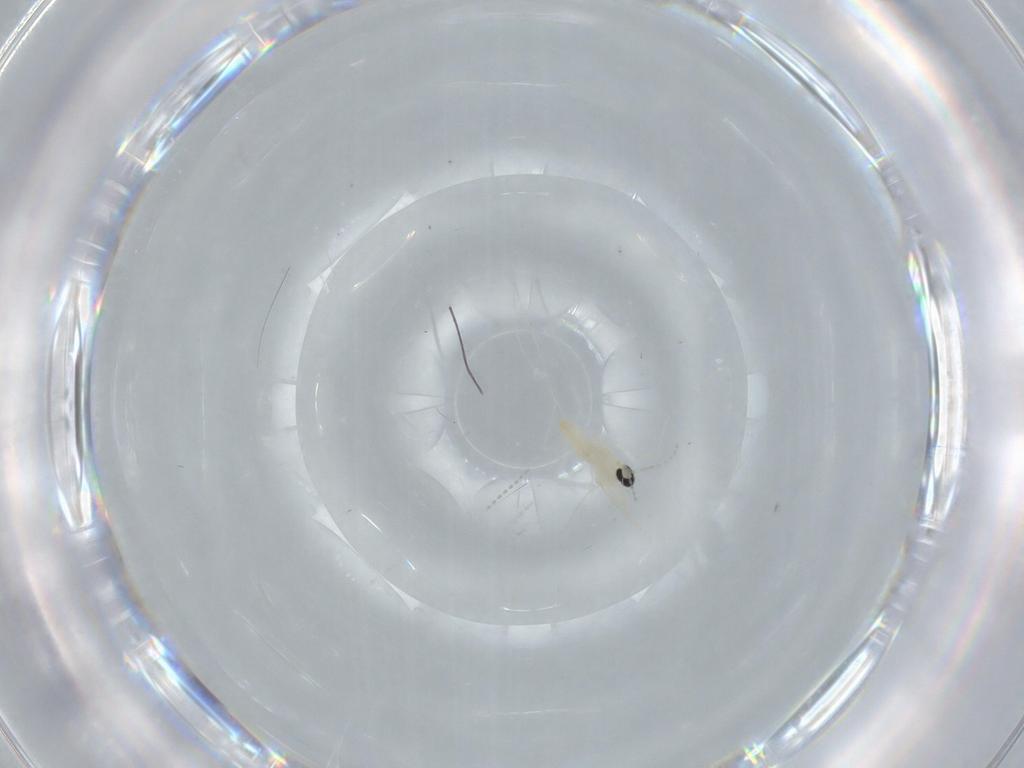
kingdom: Animalia
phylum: Arthropoda
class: Insecta
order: Diptera
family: Cecidomyiidae
